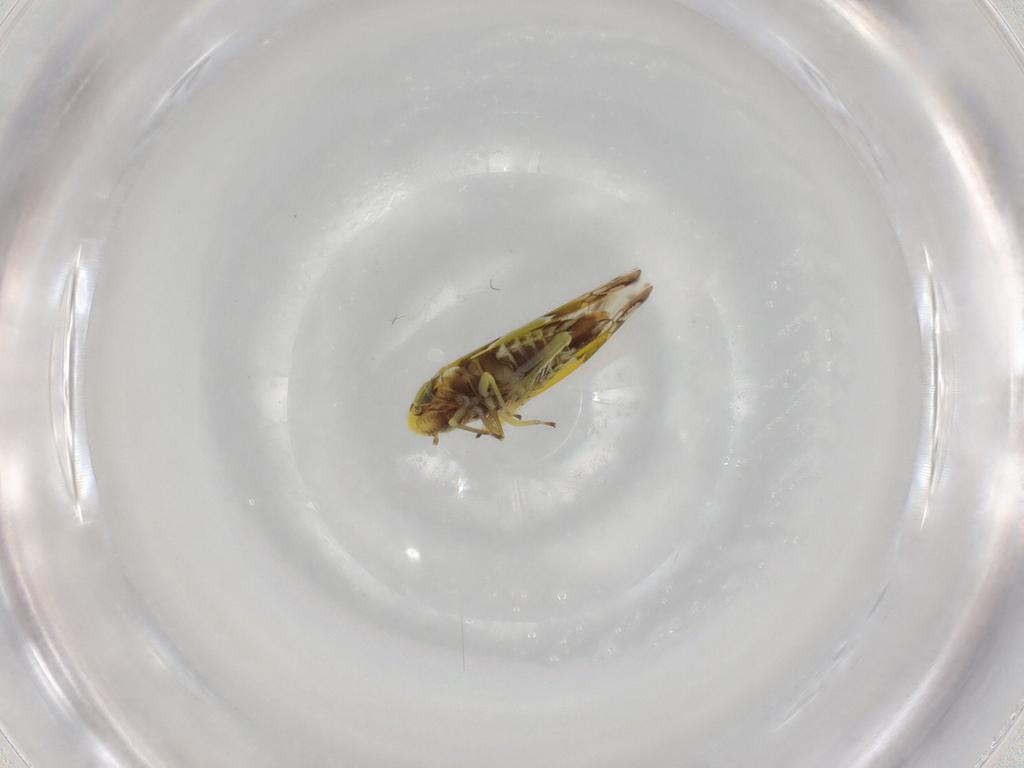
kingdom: Animalia
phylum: Arthropoda
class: Insecta
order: Hemiptera
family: Cicadellidae
